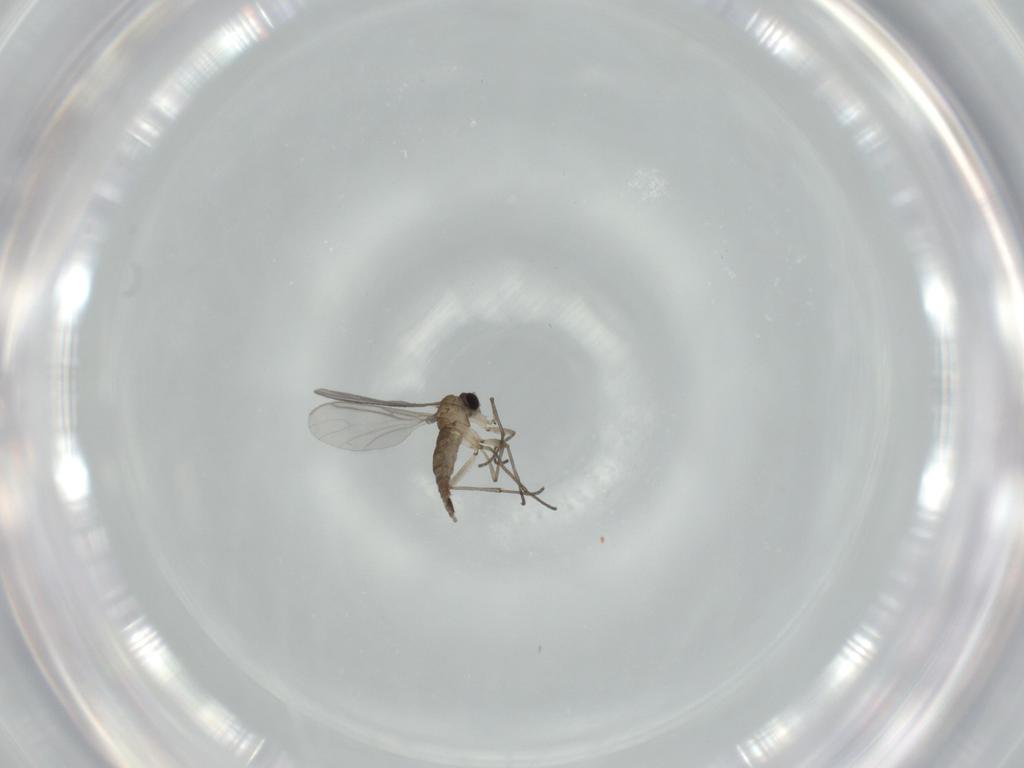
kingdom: Animalia
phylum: Arthropoda
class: Insecta
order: Diptera
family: Sciaridae
